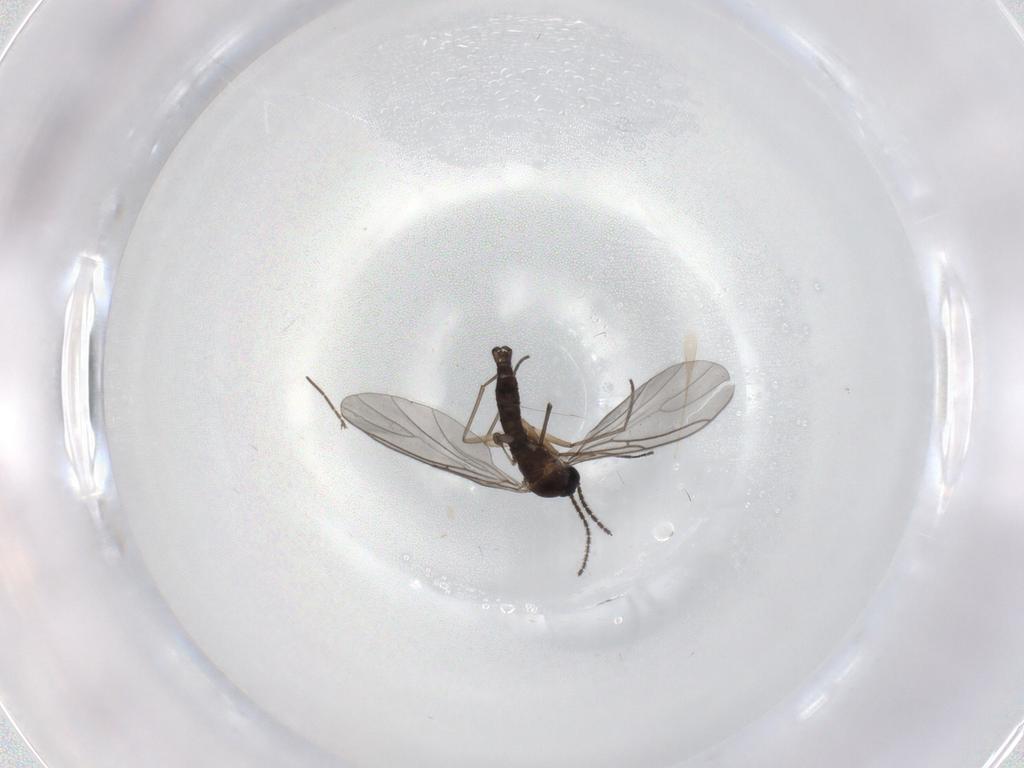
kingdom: Animalia
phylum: Arthropoda
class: Insecta
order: Diptera
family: Sciaridae
